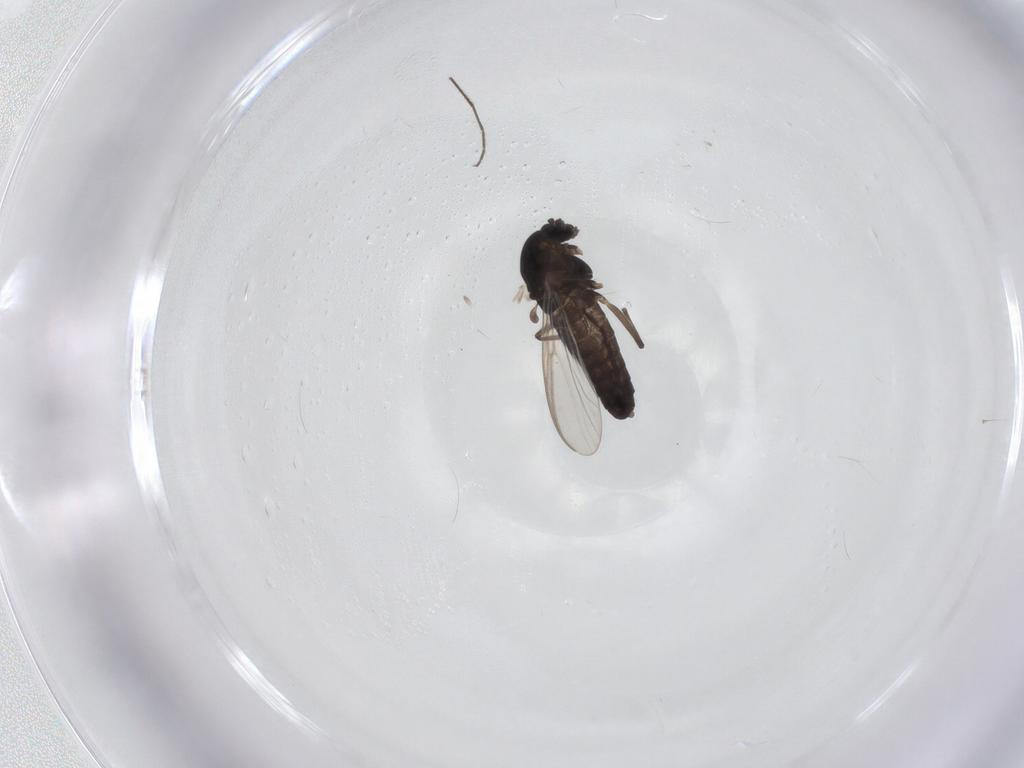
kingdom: Animalia
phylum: Arthropoda
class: Insecta
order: Diptera
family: Chironomidae
